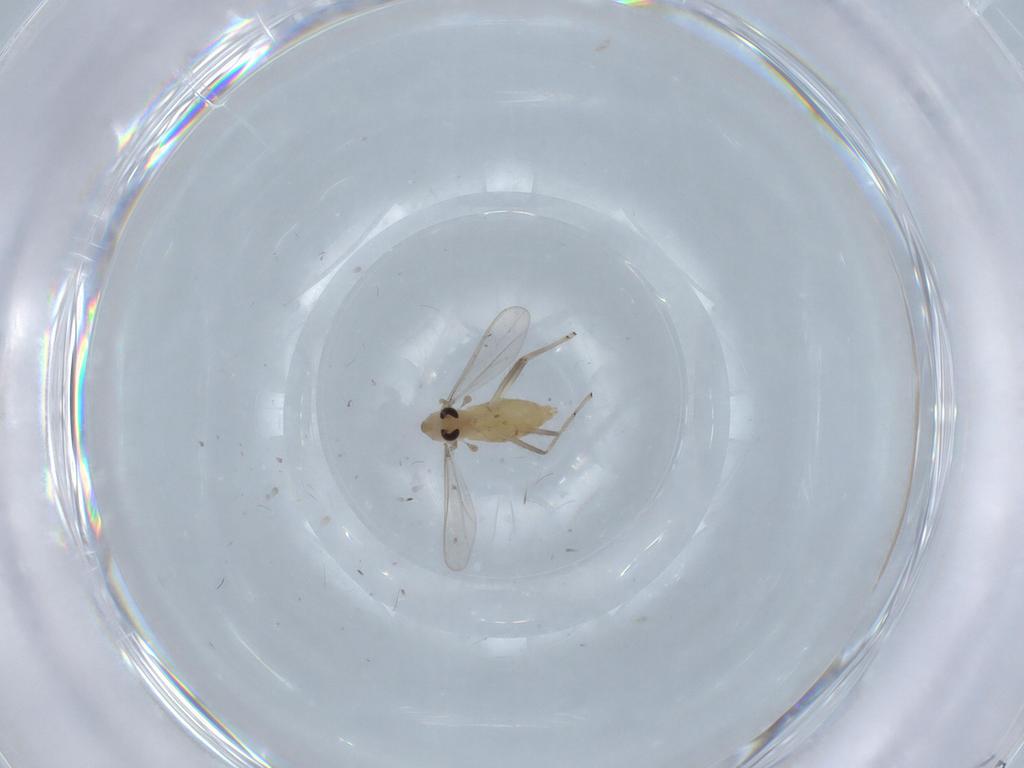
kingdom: Animalia
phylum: Arthropoda
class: Insecta
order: Diptera
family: Chironomidae
